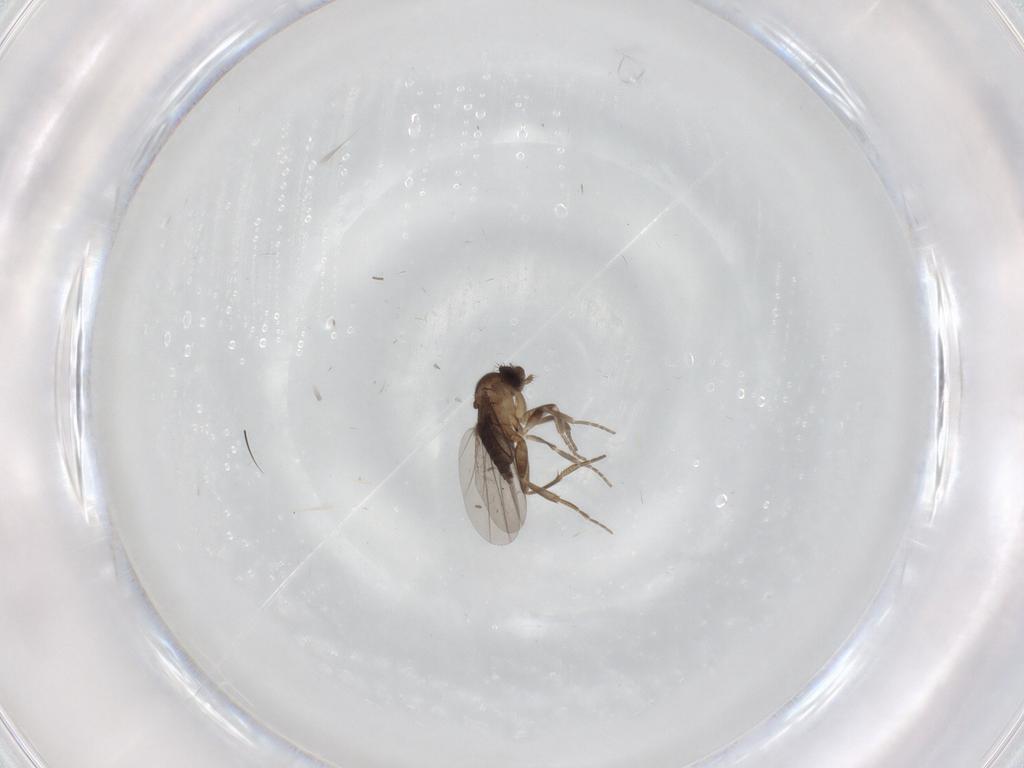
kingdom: Animalia
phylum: Arthropoda
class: Insecta
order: Diptera
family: Phoridae
